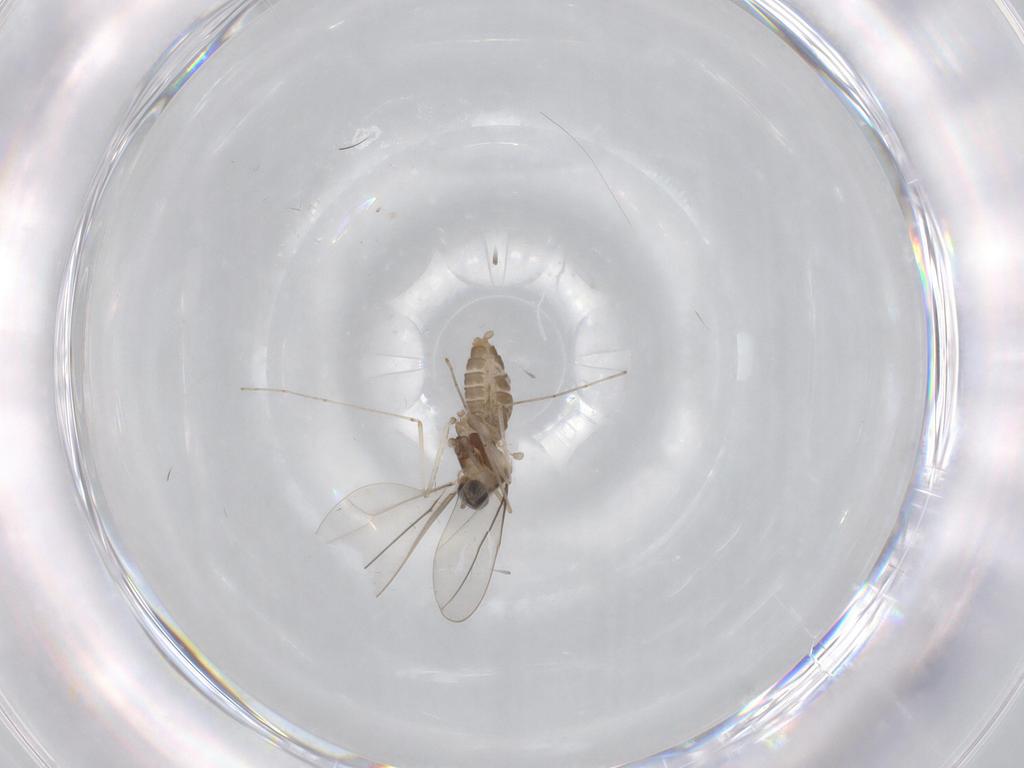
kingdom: Animalia
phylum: Arthropoda
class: Insecta
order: Diptera
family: Cecidomyiidae
